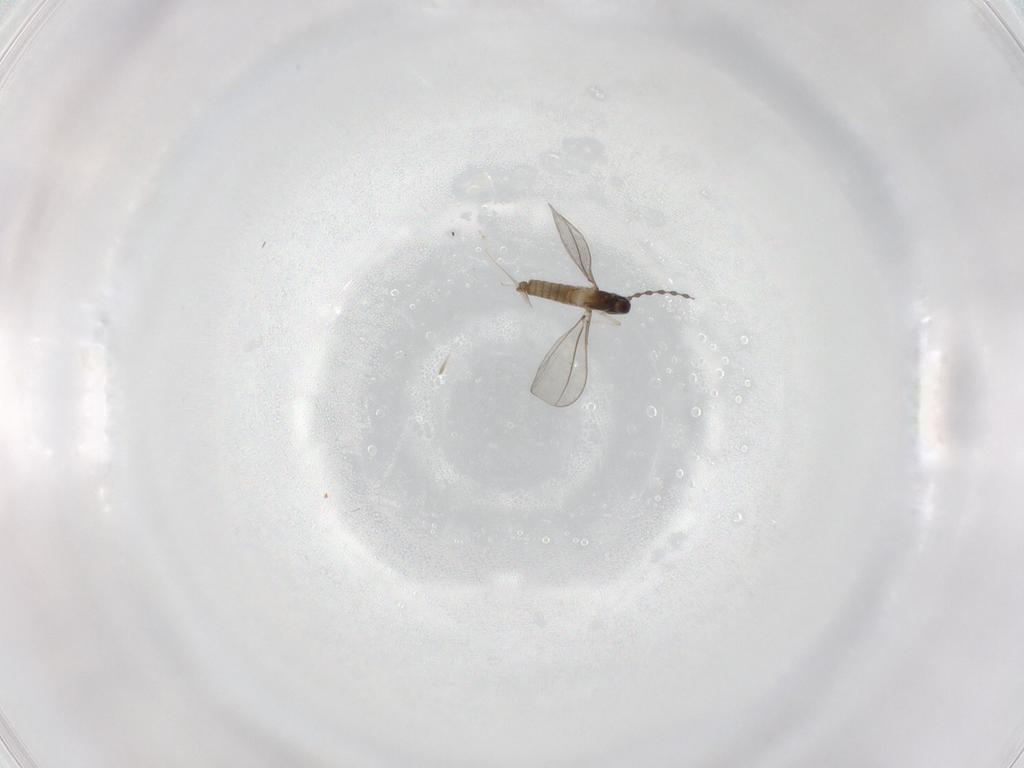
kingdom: Animalia
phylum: Arthropoda
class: Insecta
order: Diptera
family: Cecidomyiidae
